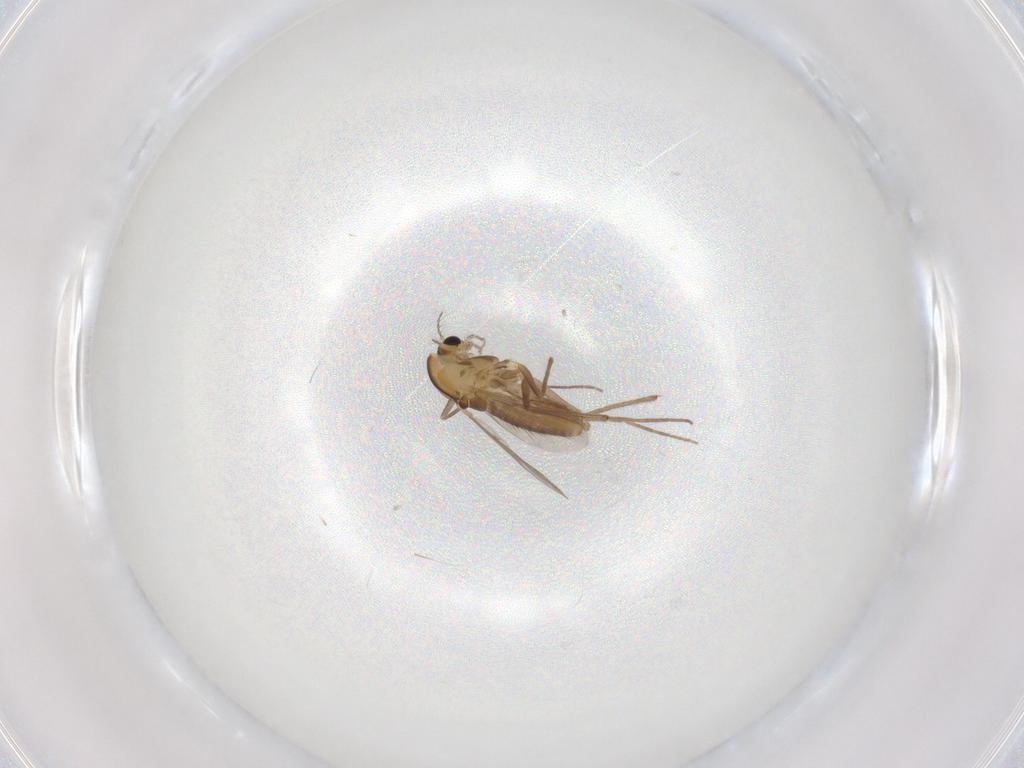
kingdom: Animalia
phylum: Arthropoda
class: Insecta
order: Diptera
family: Chironomidae
